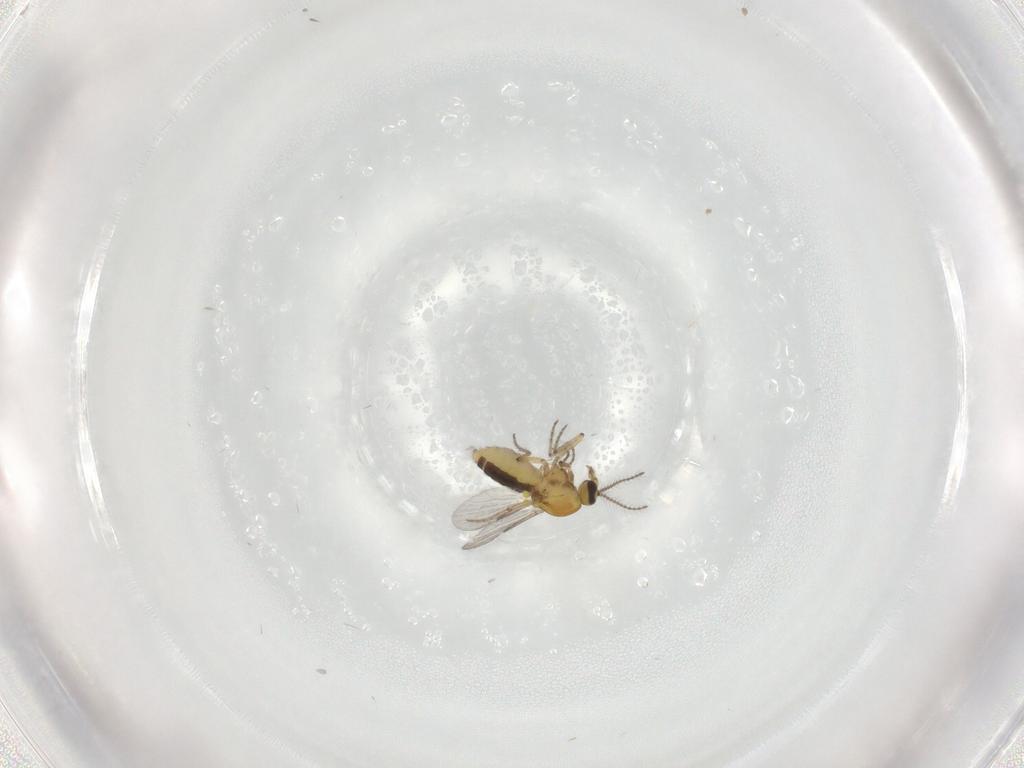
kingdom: Animalia
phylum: Arthropoda
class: Insecta
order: Diptera
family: Ceratopogonidae
